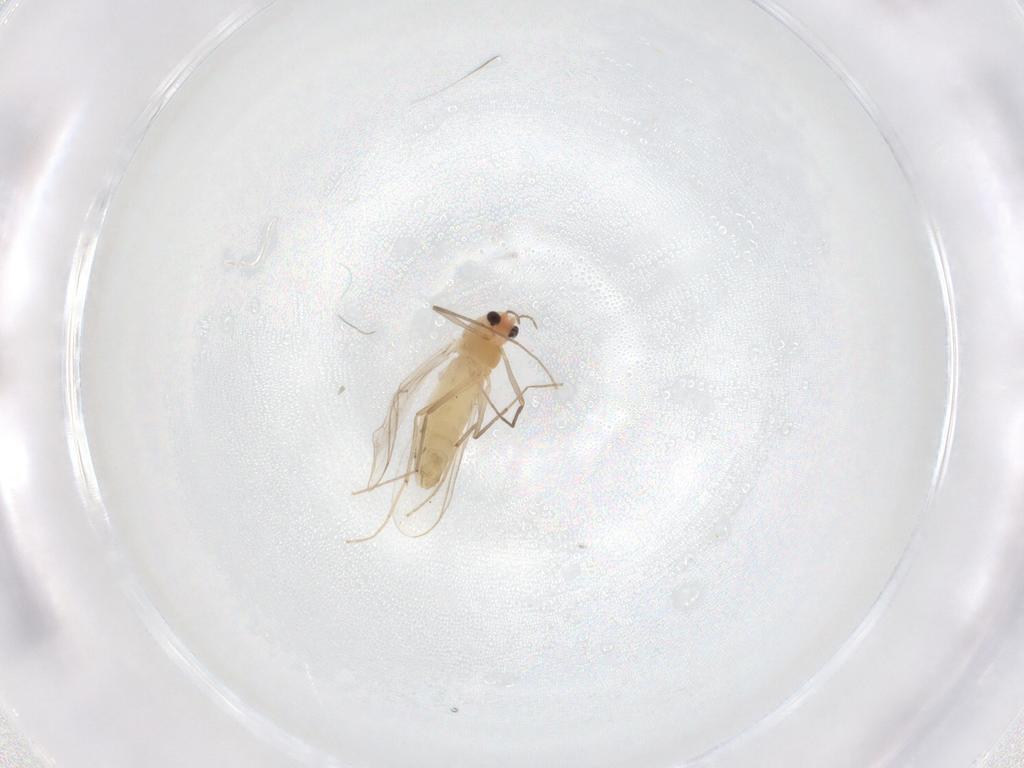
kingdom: Animalia
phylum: Arthropoda
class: Insecta
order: Diptera
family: Chironomidae
